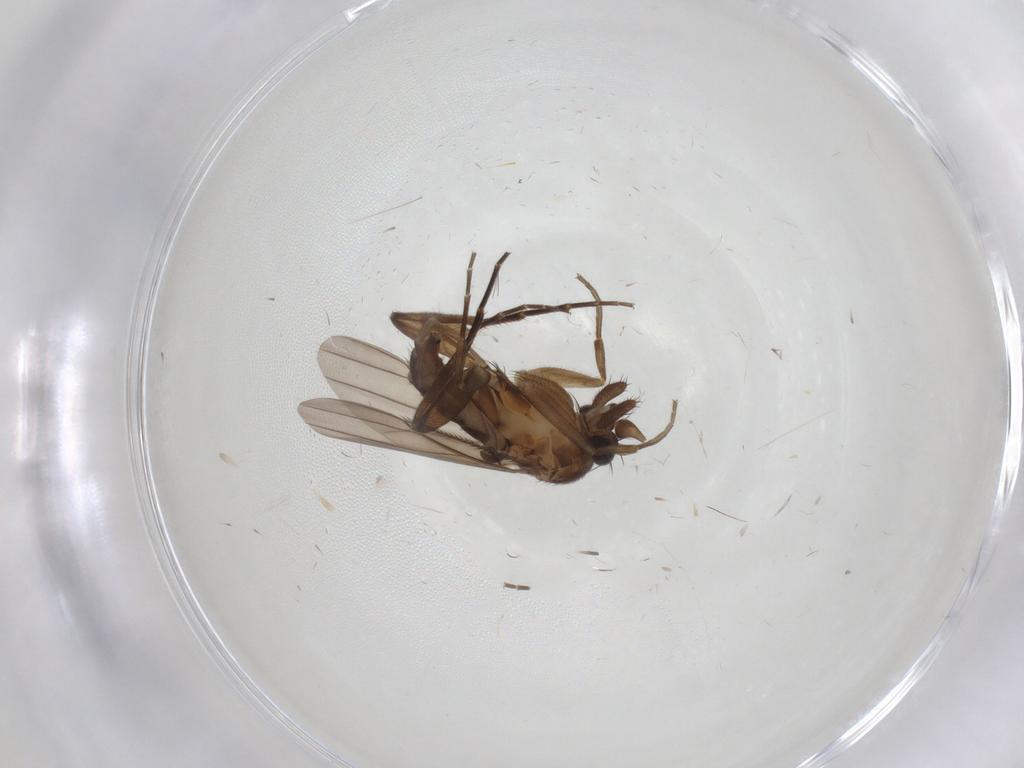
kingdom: Animalia
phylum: Arthropoda
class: Insecta
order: Diptera
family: Phoridae
